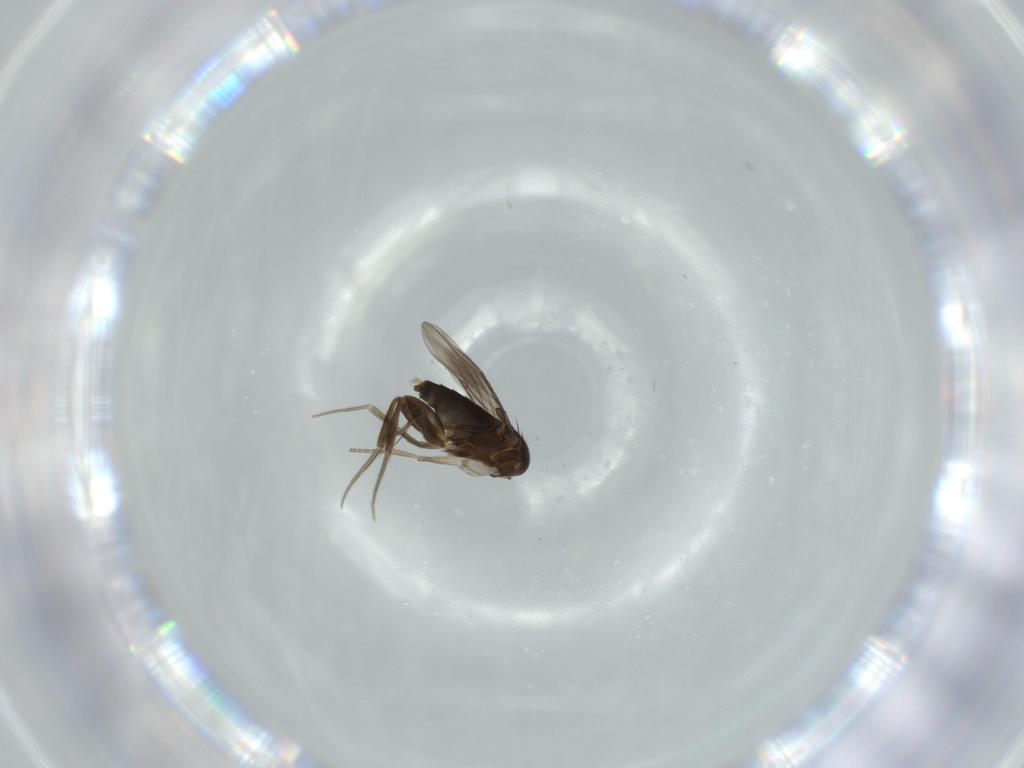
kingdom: Animalia
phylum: Arthropoda
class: Insecta
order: Diptera
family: Phoridae
